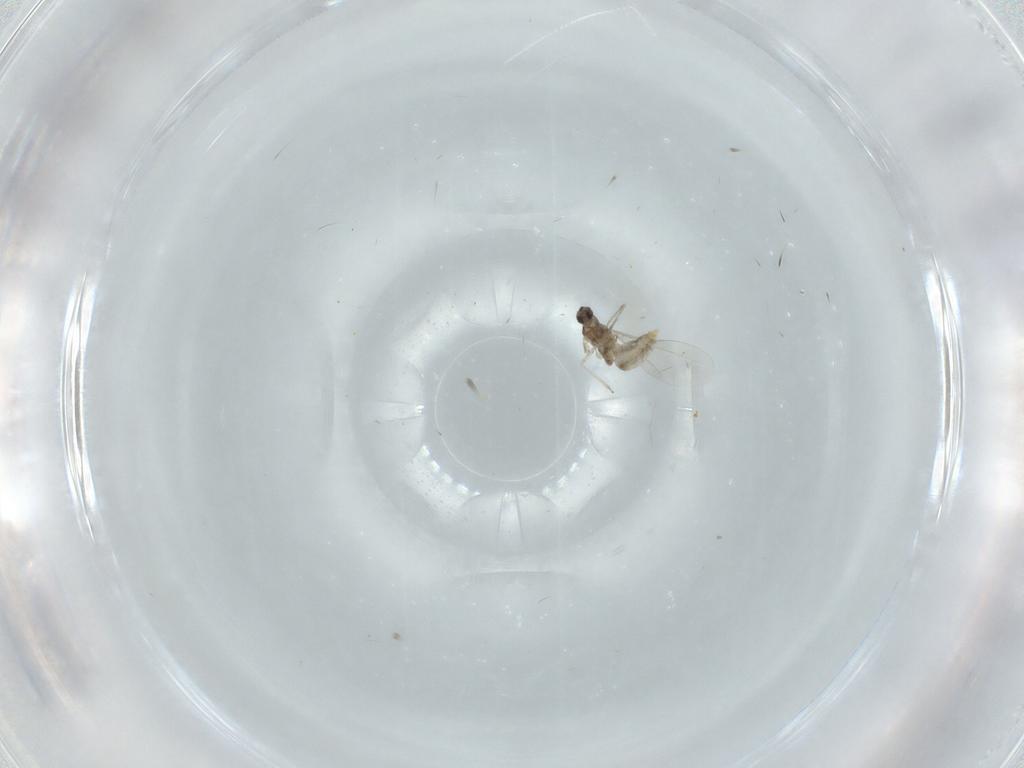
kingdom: Animalia
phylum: Arthropoda
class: Insecta
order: Diptera
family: Cecidomyiidae
